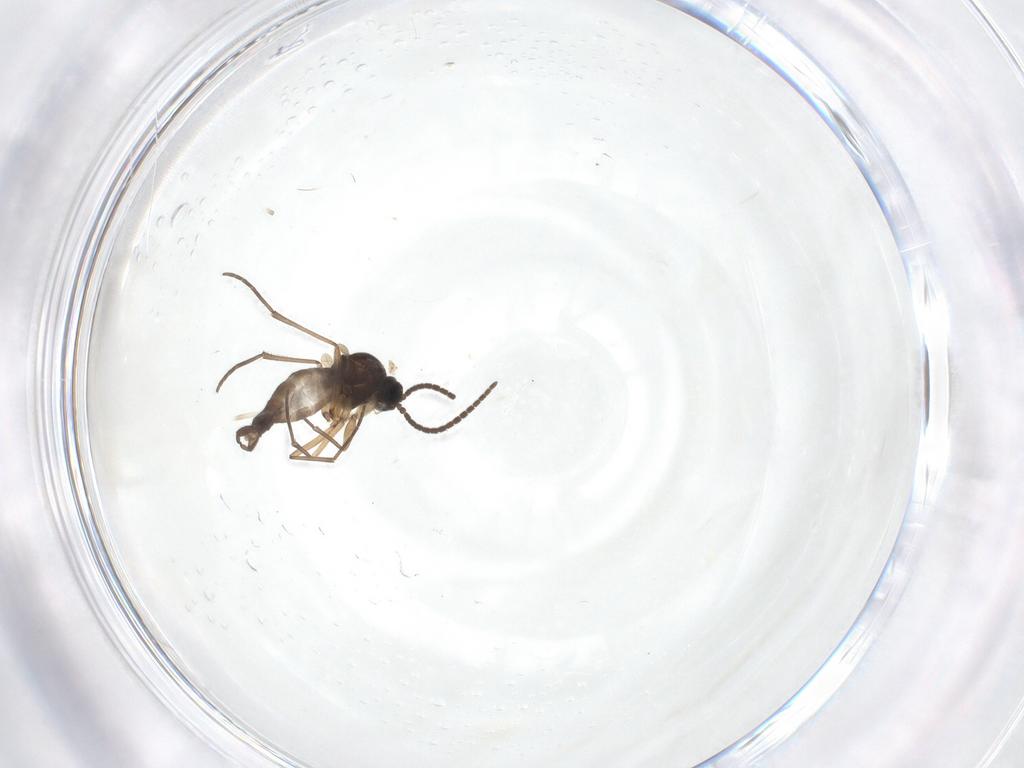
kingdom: Animalia
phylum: Arthropoda
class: Insecta
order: Diptera
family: Sciaridae
